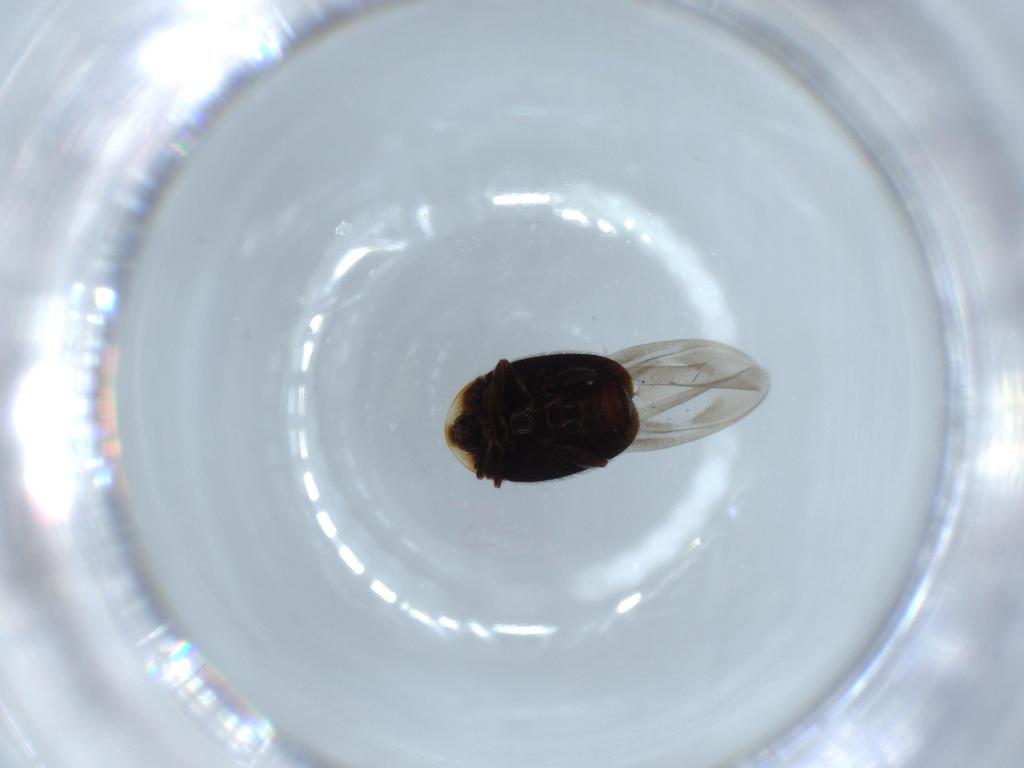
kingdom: Animalia
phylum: Arthropoda
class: Insecta
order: Coleoptera
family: Corylophidae
